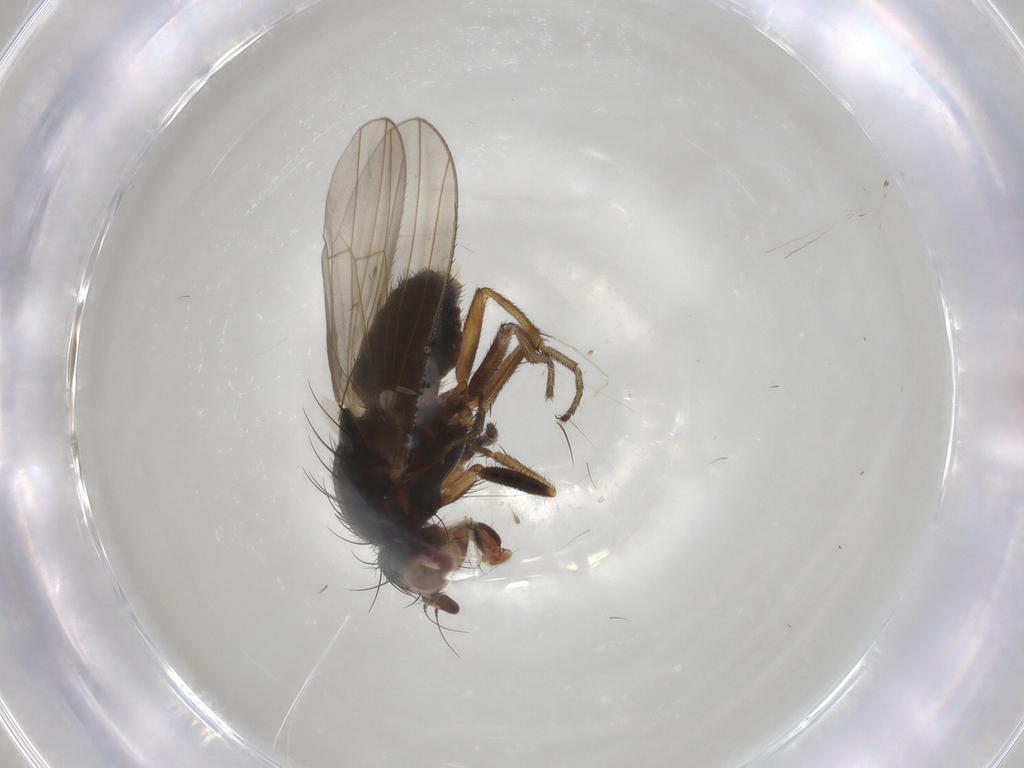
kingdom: Animalia
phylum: Arthropoda
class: Insecta
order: Diptera
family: Heleomyzidae
